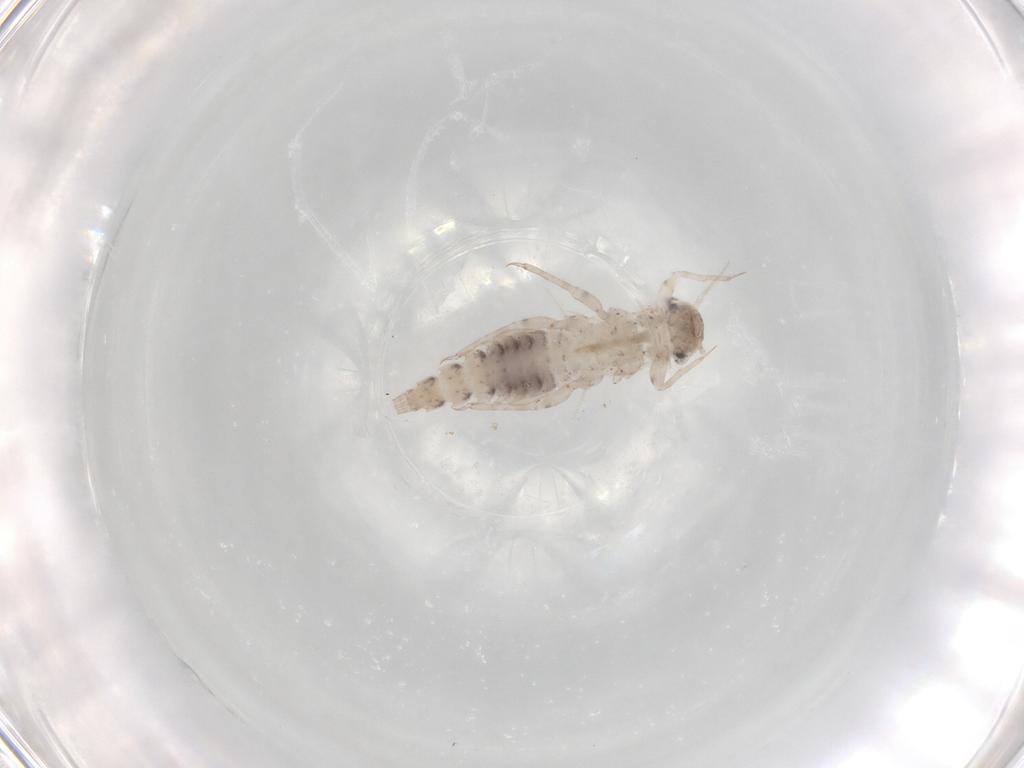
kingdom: Animalia
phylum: Arthropoda
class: Insecta
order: Ephemeroptera
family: Caenidae
